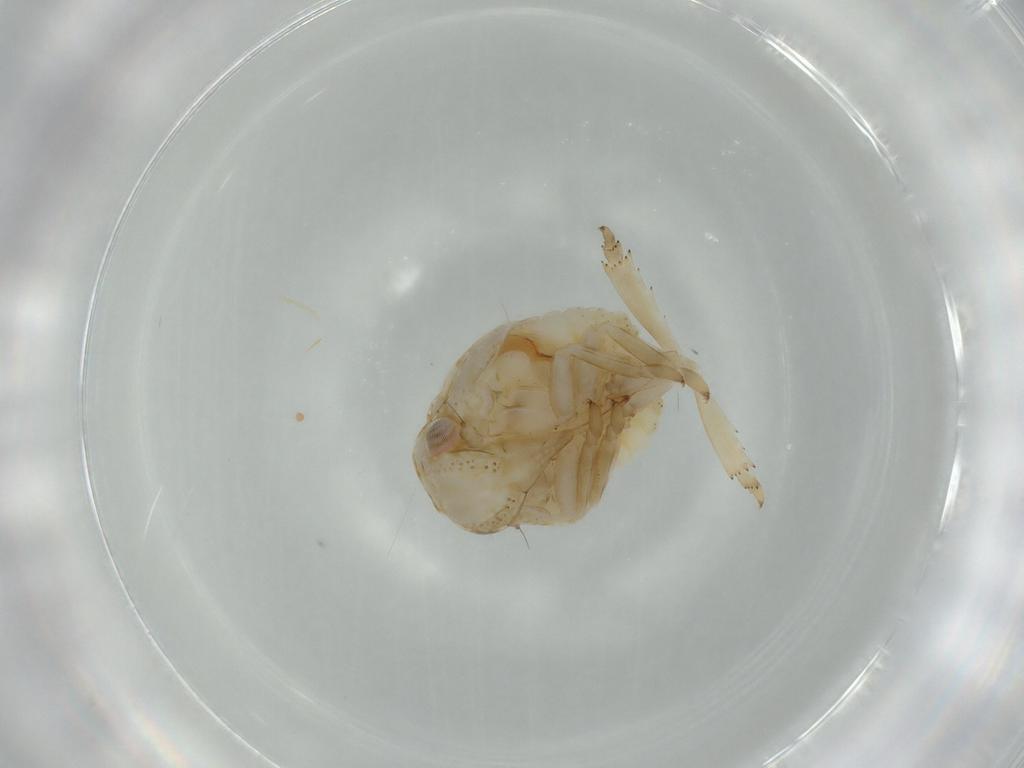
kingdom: Animalia
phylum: Arthropoda
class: Insecta
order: Hemiptera
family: Acanaloniidae
